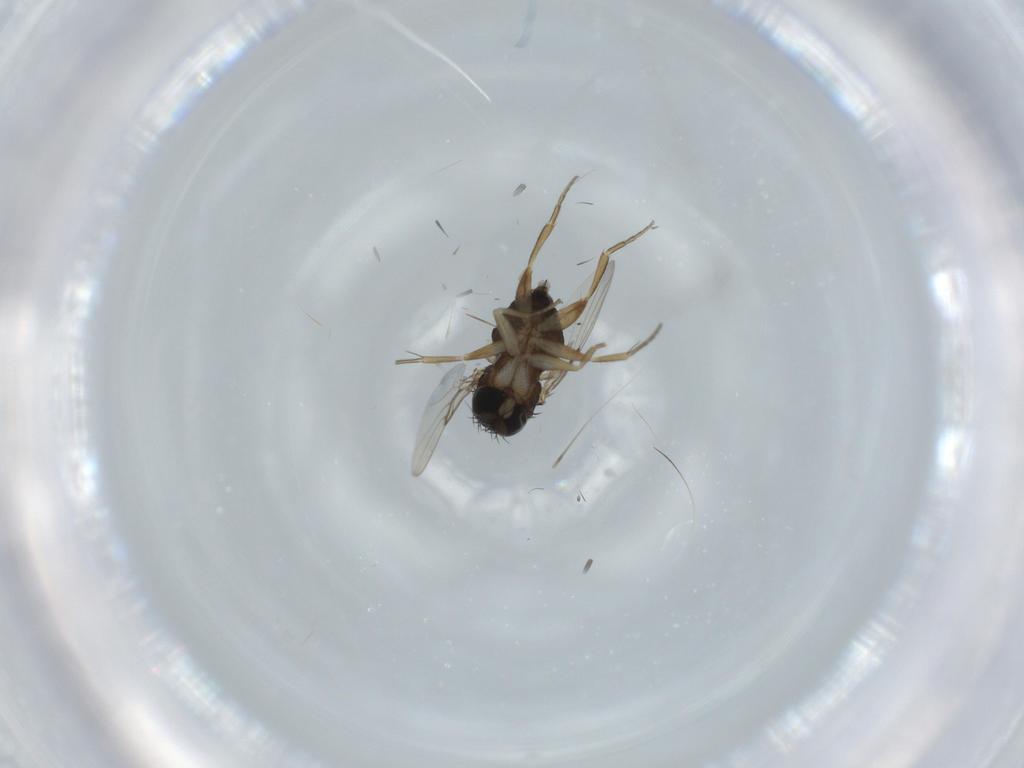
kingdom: Animalia
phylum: Arthropoda
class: Insecta
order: Diptera
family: Phoridae
